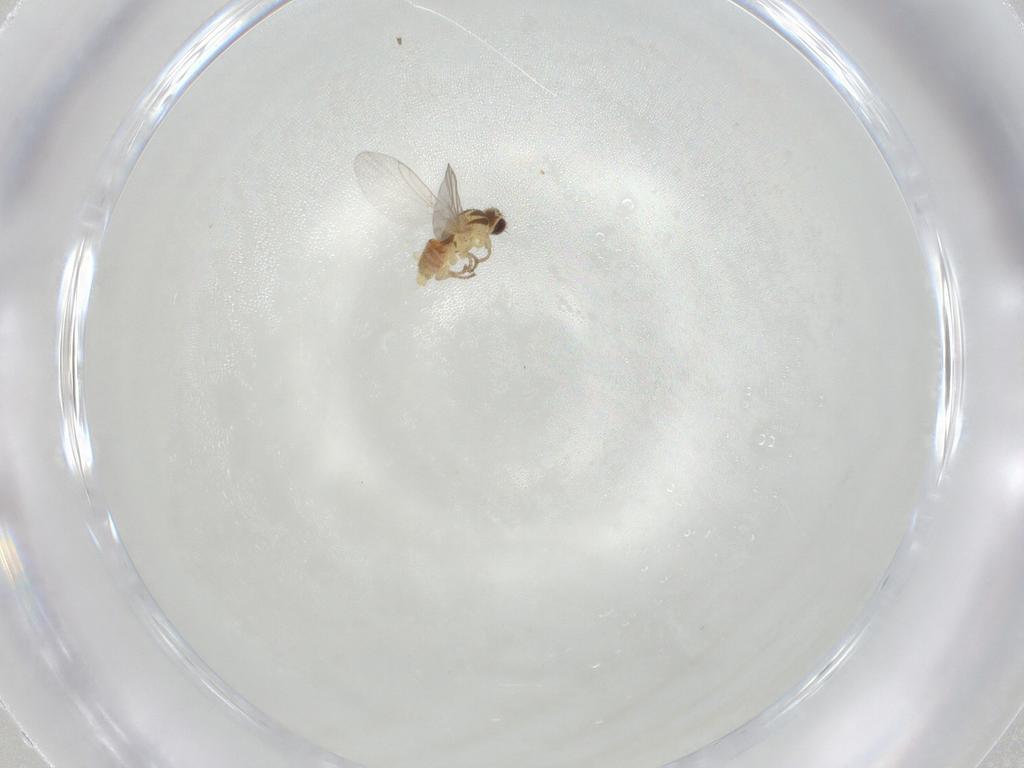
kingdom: Animalia
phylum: Arthropoda
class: Insecta
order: Diptera
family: Agromyzidae
